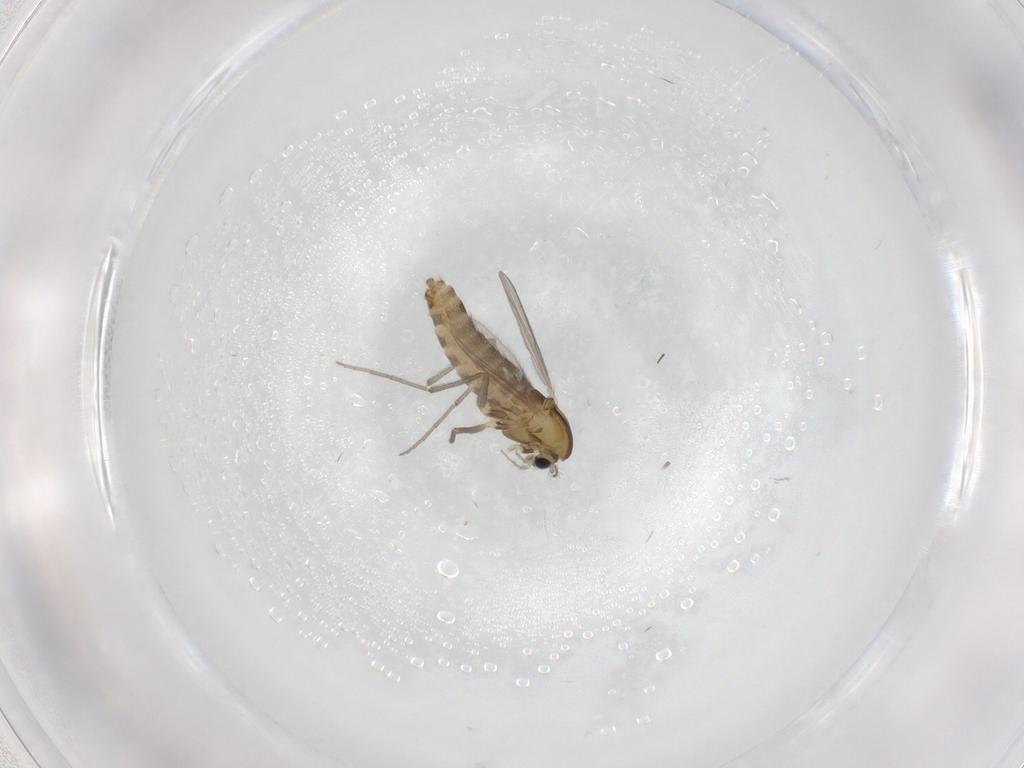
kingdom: Animalia
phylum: Arthropoda
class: Insecta
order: Diptera
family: Chironomidae
